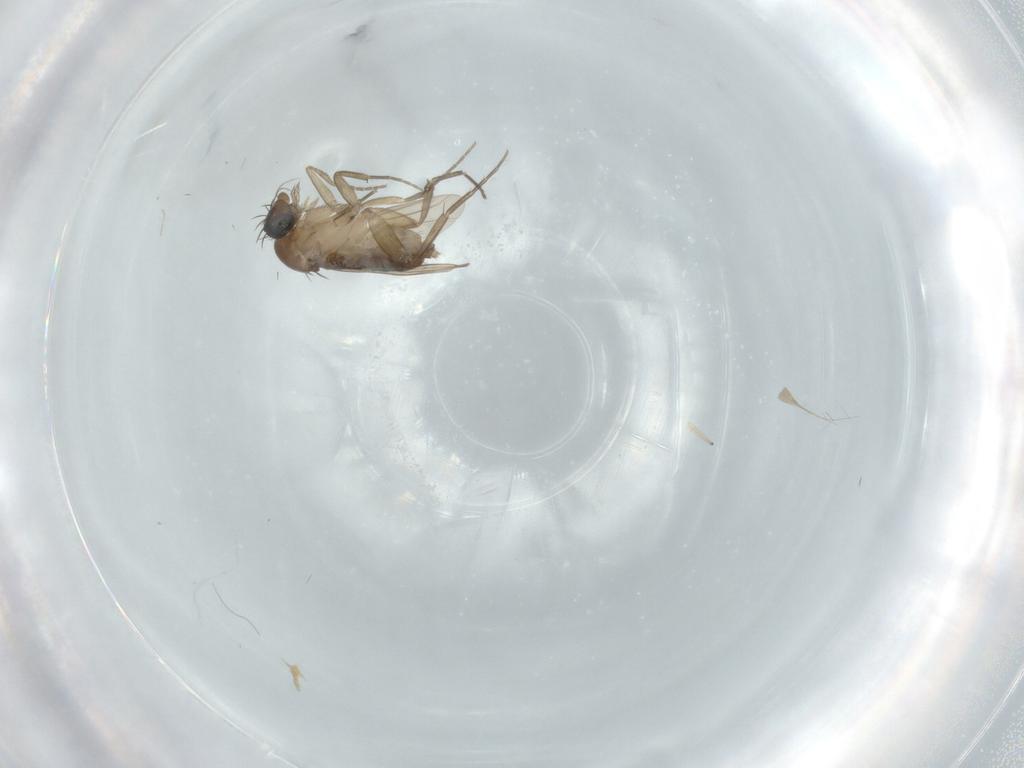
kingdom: Animalia
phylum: Arthropoda
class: Insecta
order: Diptera
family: Phoridae
